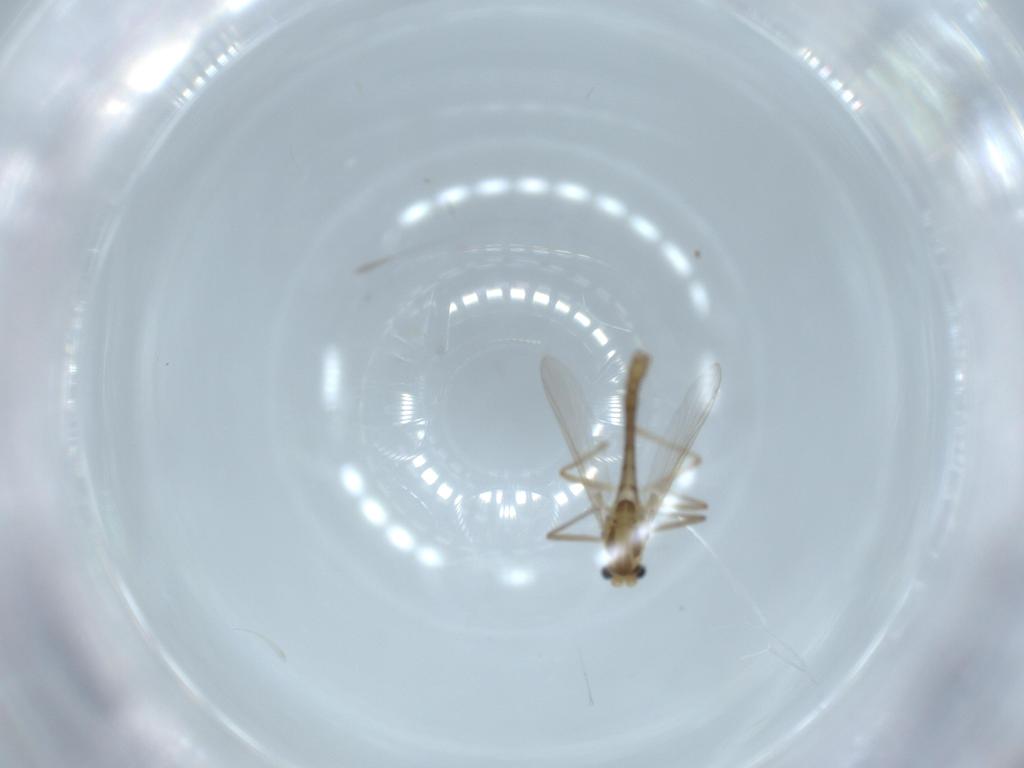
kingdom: Animalia
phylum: Arthropoda
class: Insecta
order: Diptera
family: Chironomidae
